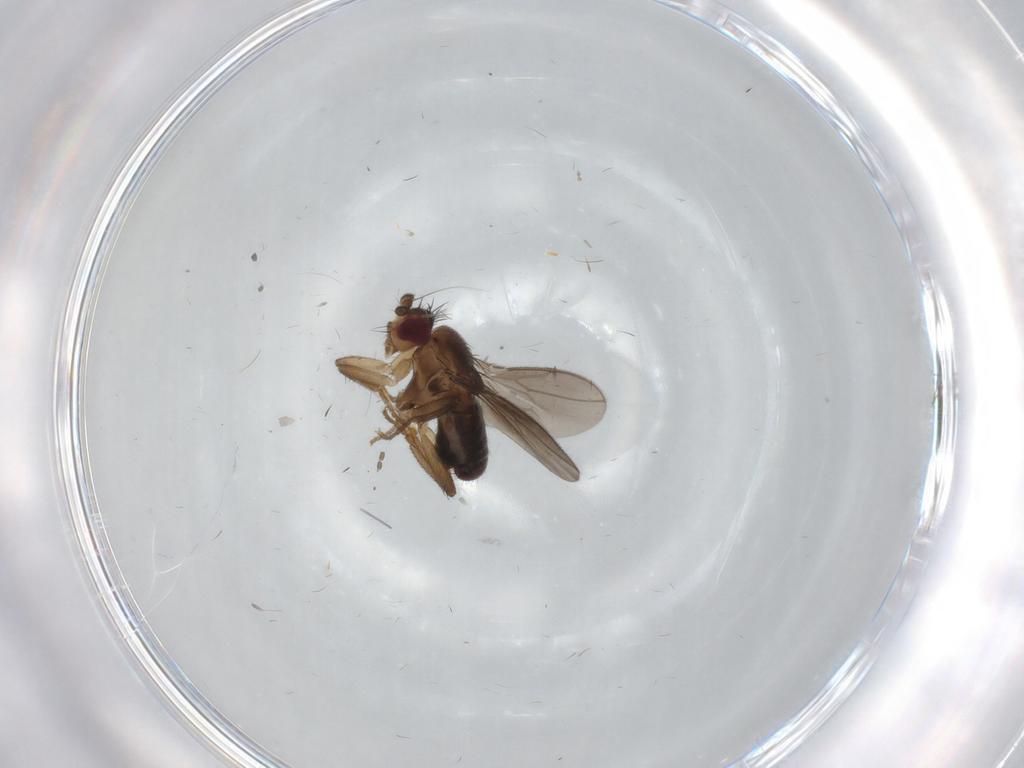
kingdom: Animalia
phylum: Arthropoda
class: Insecta
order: Diptera
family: Sphaeroceridae
